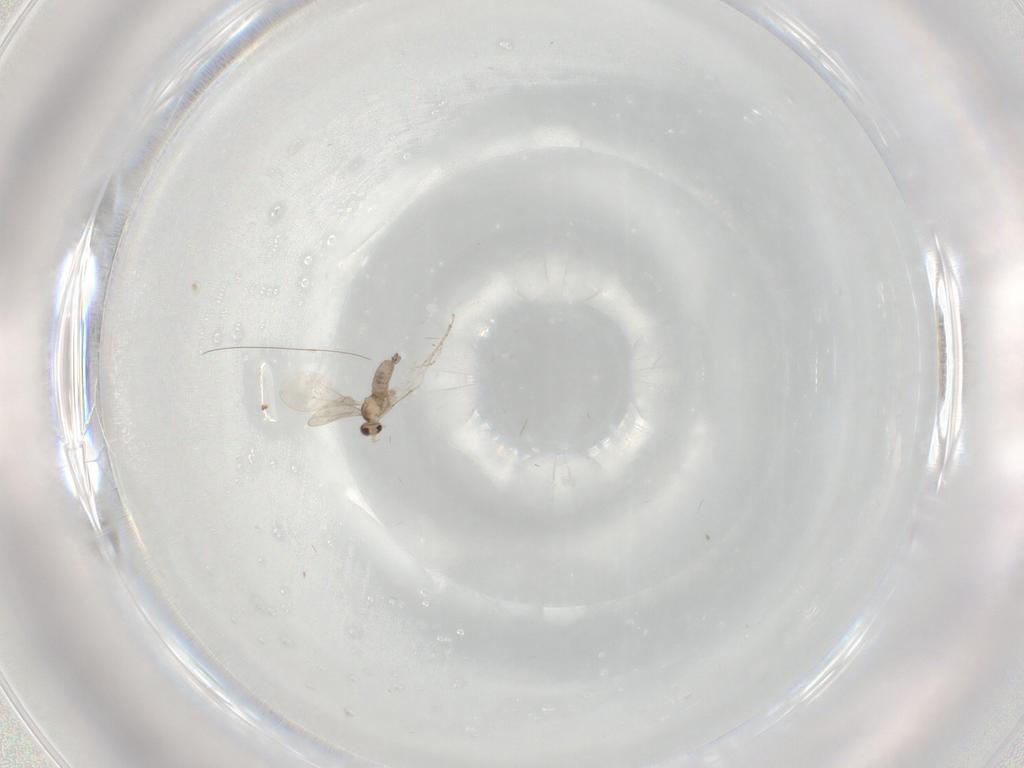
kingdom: Animalia
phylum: Arthropoda
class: Insecta
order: Diptera
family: Cecidomyiidae
